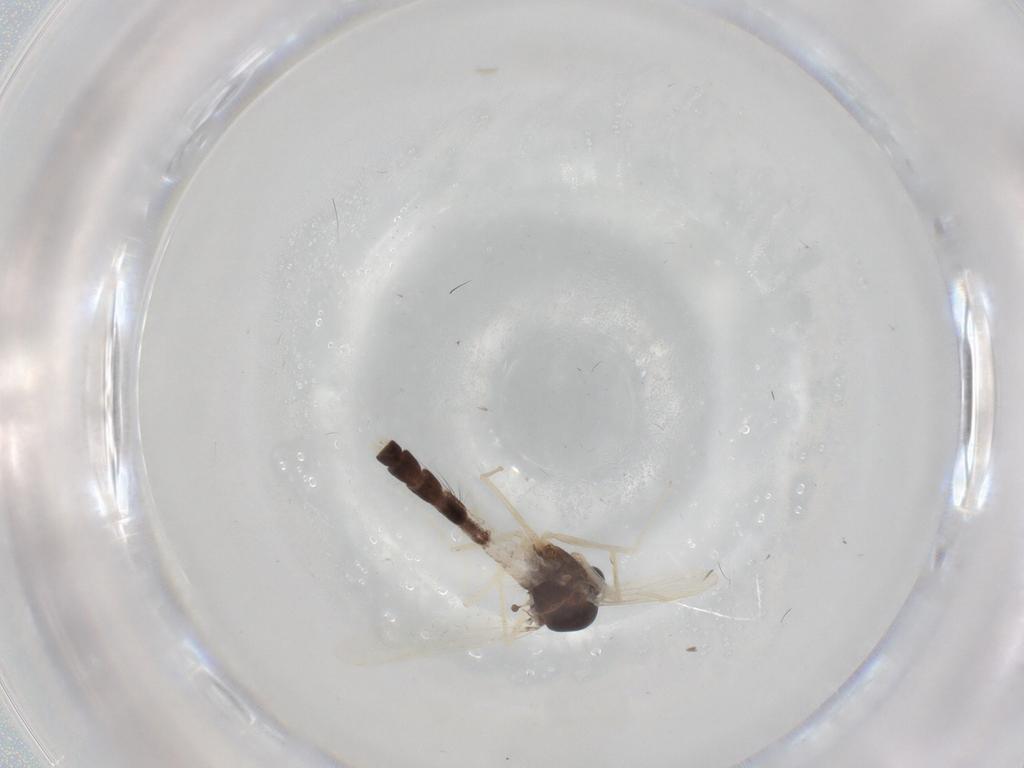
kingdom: Animalia
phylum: Arthropoda
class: Insecta
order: Diptera
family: Chironomidae
